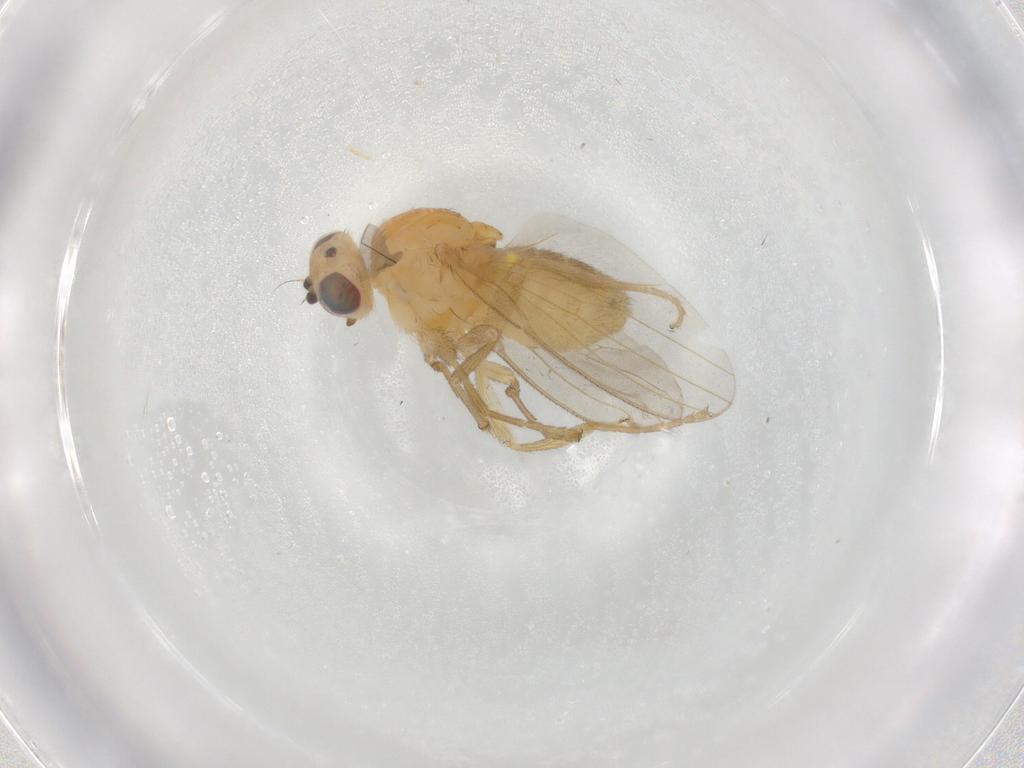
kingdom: Animalia
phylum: Arthropoda
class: Insecta
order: Diptera
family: Chyromyidae
